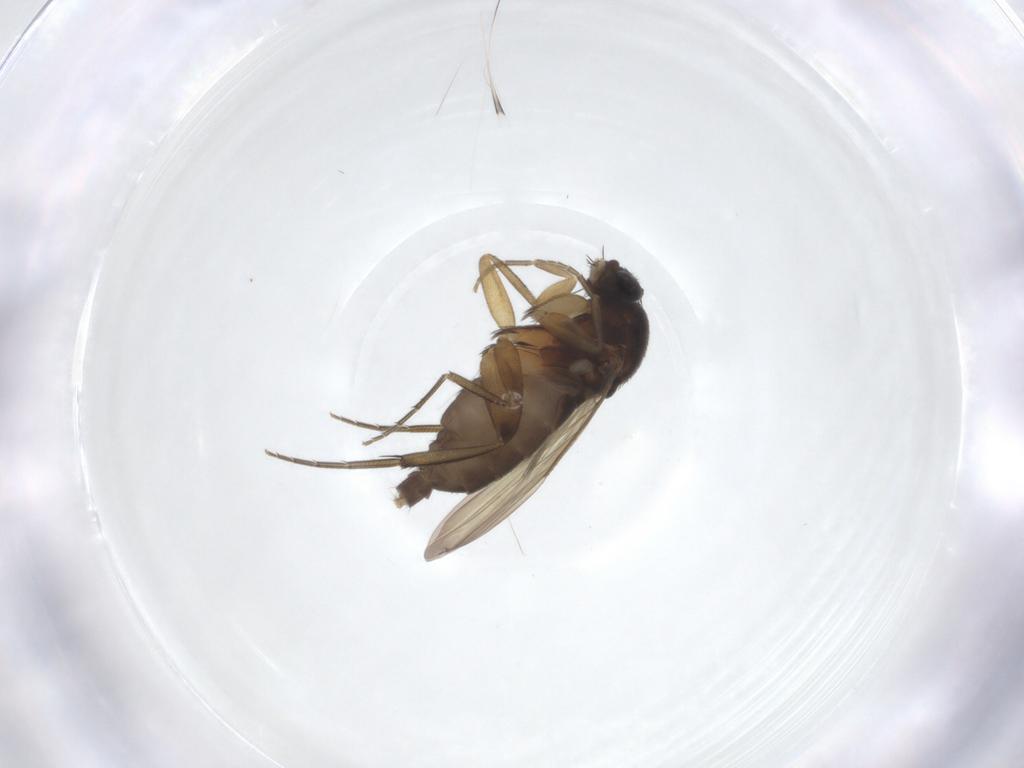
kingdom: Animalia
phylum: Arthropoda
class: Insecta
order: Diptera
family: Phoridae
